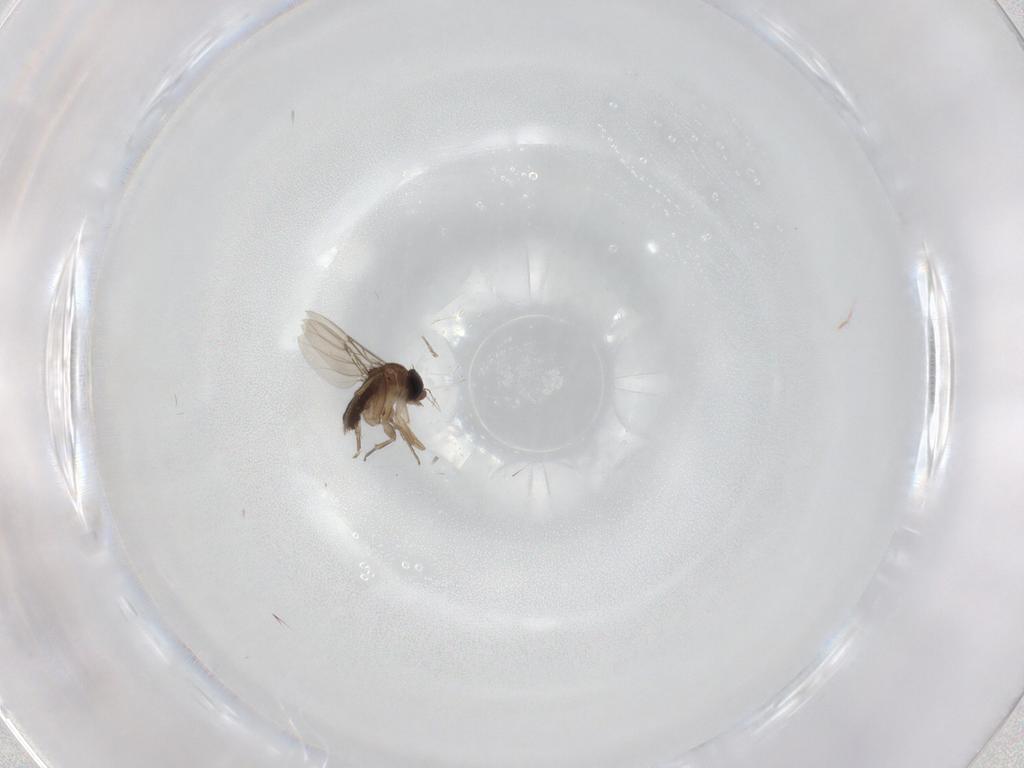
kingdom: Animalia
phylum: Arthropoda
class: Insecta
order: Diptera
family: Phoridae
